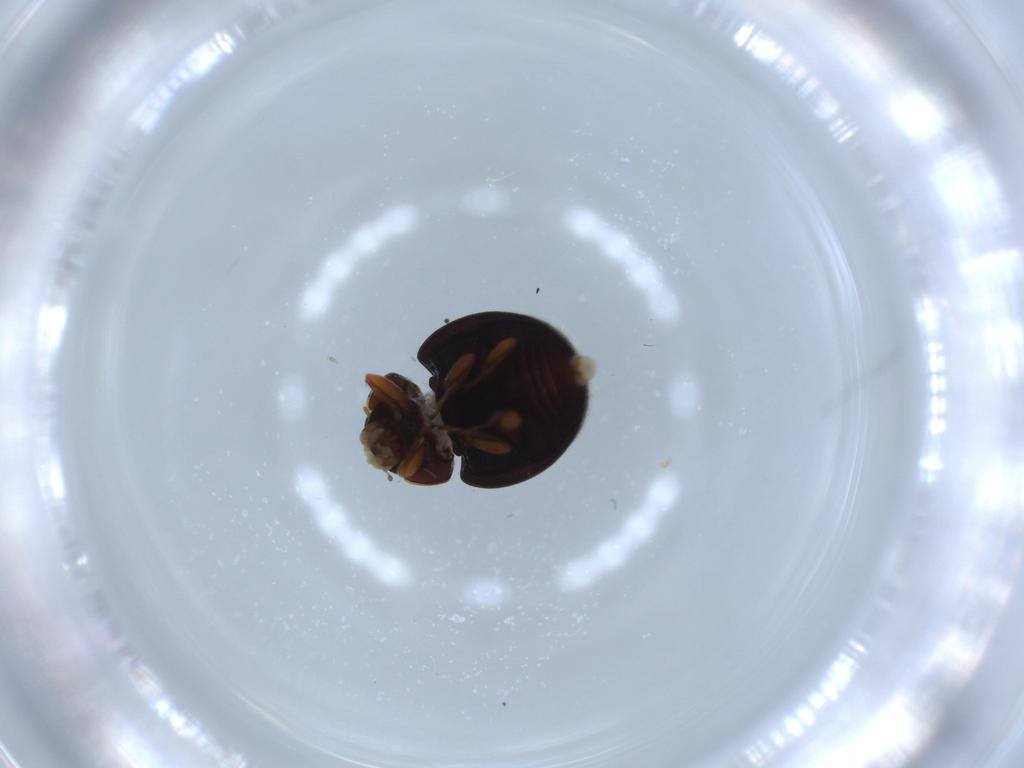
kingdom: Animalia
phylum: Arthropoda
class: Insecta
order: Coleoptera
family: Coccinellidae
